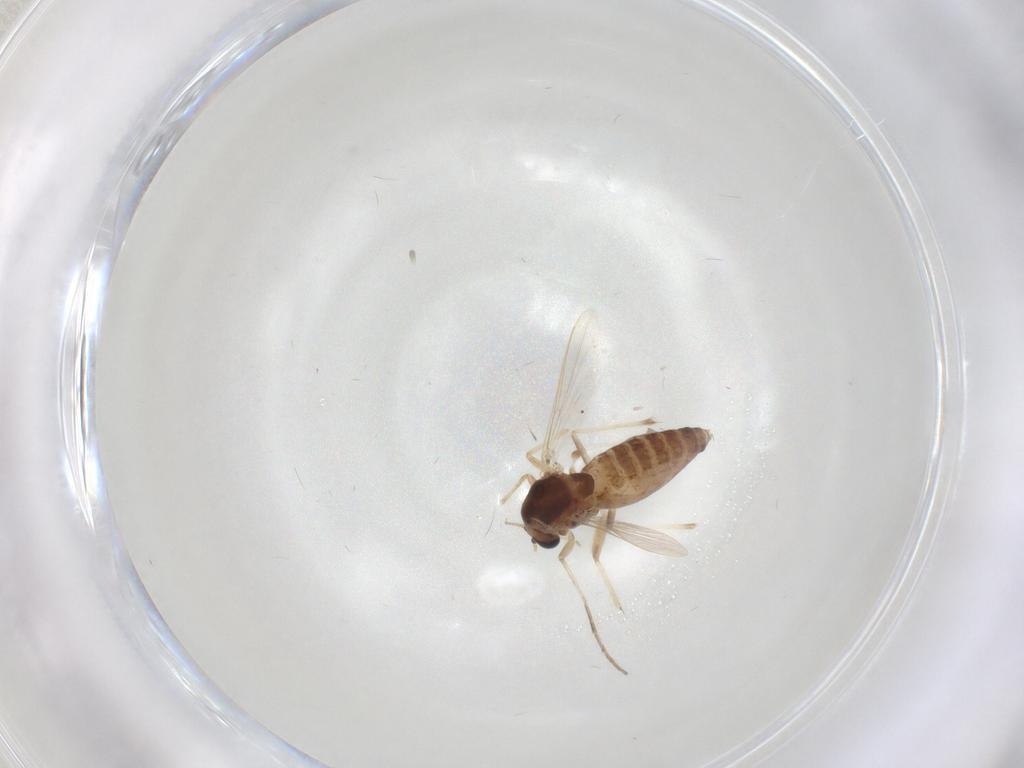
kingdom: Animalia
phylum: Arthropoda
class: Insecta
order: Diptera
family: Chironomidae
